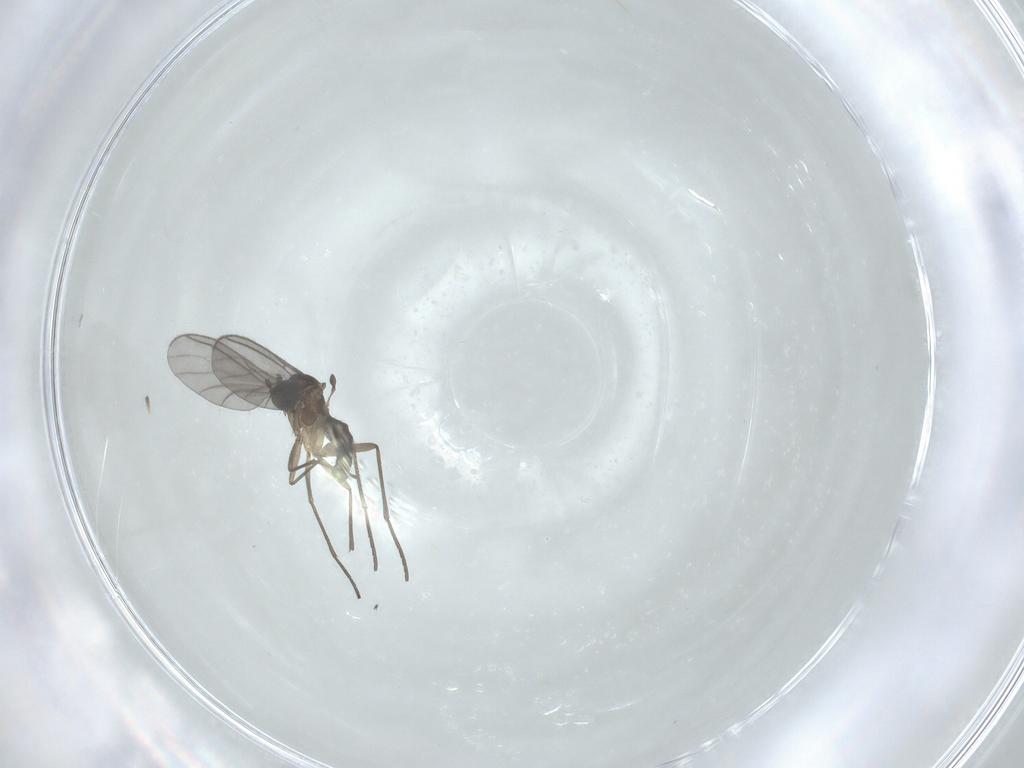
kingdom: Animalia
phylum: Arthropoda
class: Insecta
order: Diptera
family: Sciaridae
